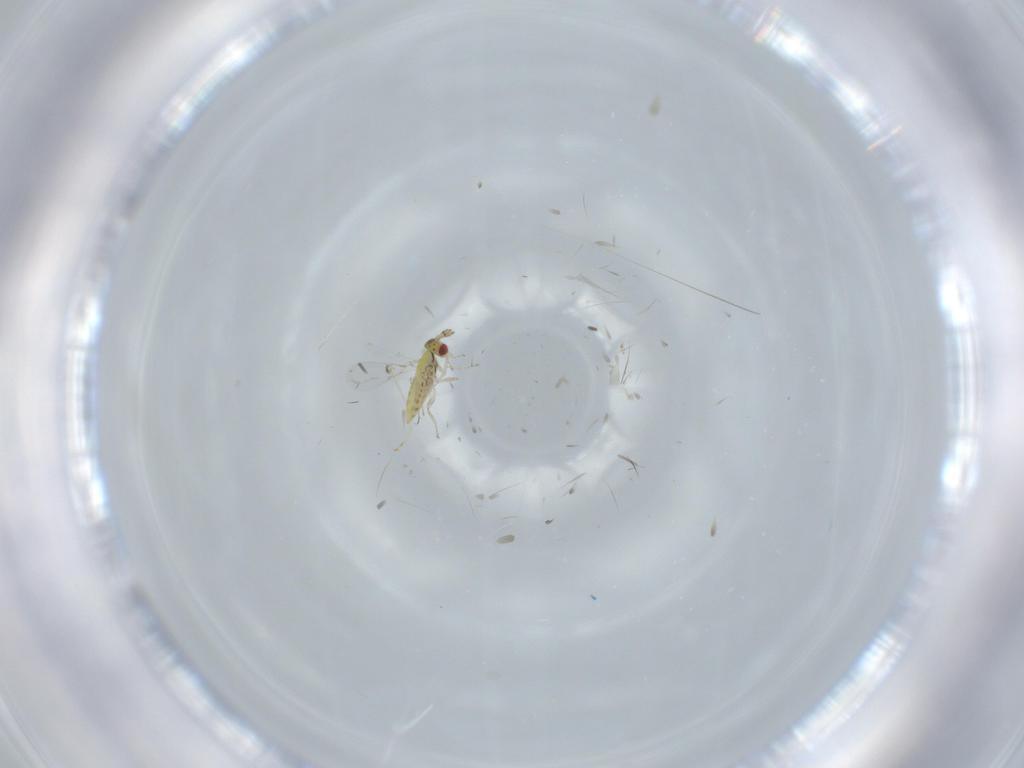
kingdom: Animalia
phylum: Arthropoda
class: Insecta
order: Hymenoptera
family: Trichogrammatidae
